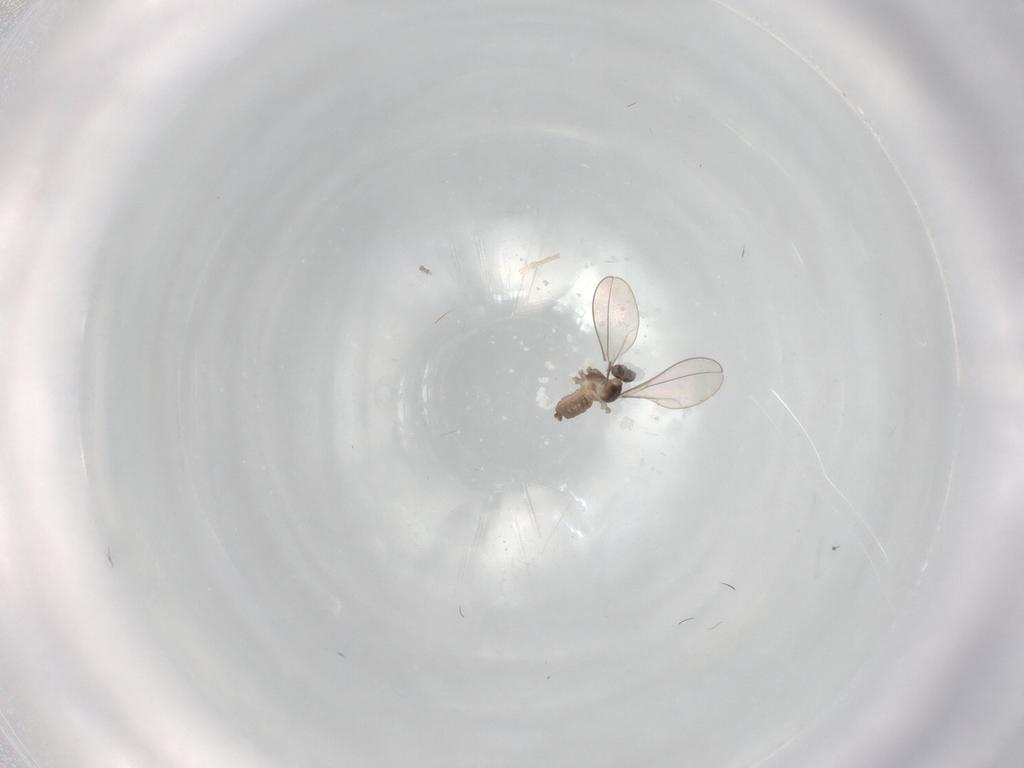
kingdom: Animalia
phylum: Arthropoda
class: Insecta
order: Diptera
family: Cecidomyiidae
